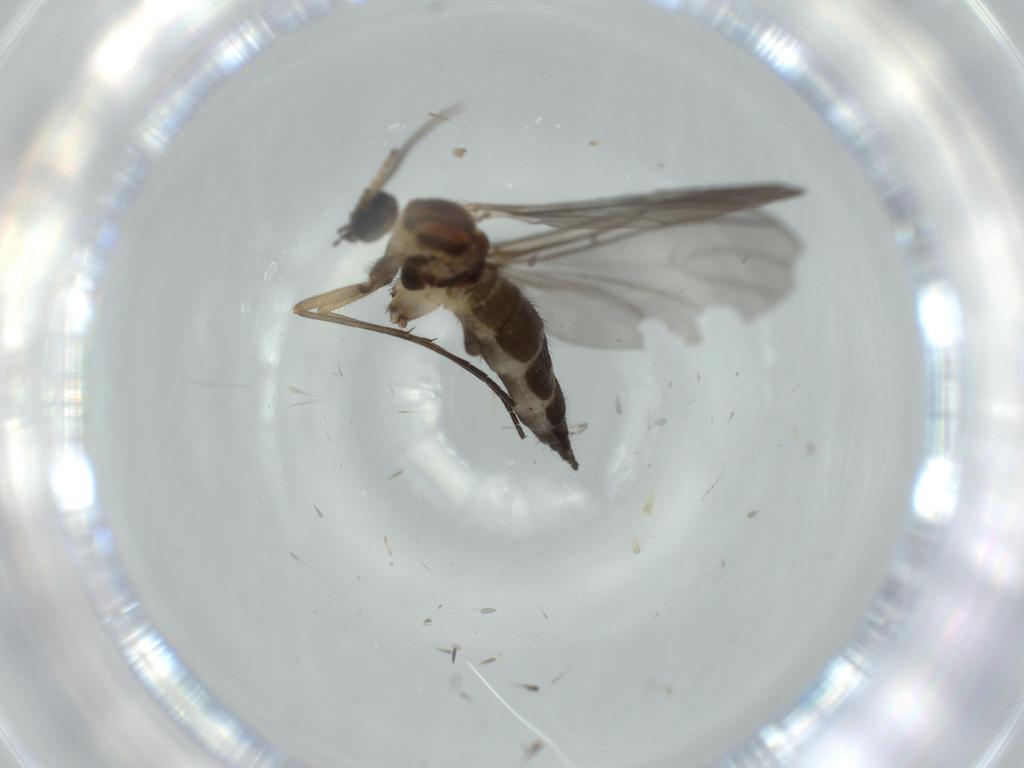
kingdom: Animalia
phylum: Arthropoda
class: Insecta
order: Diptera
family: Sciaridae
